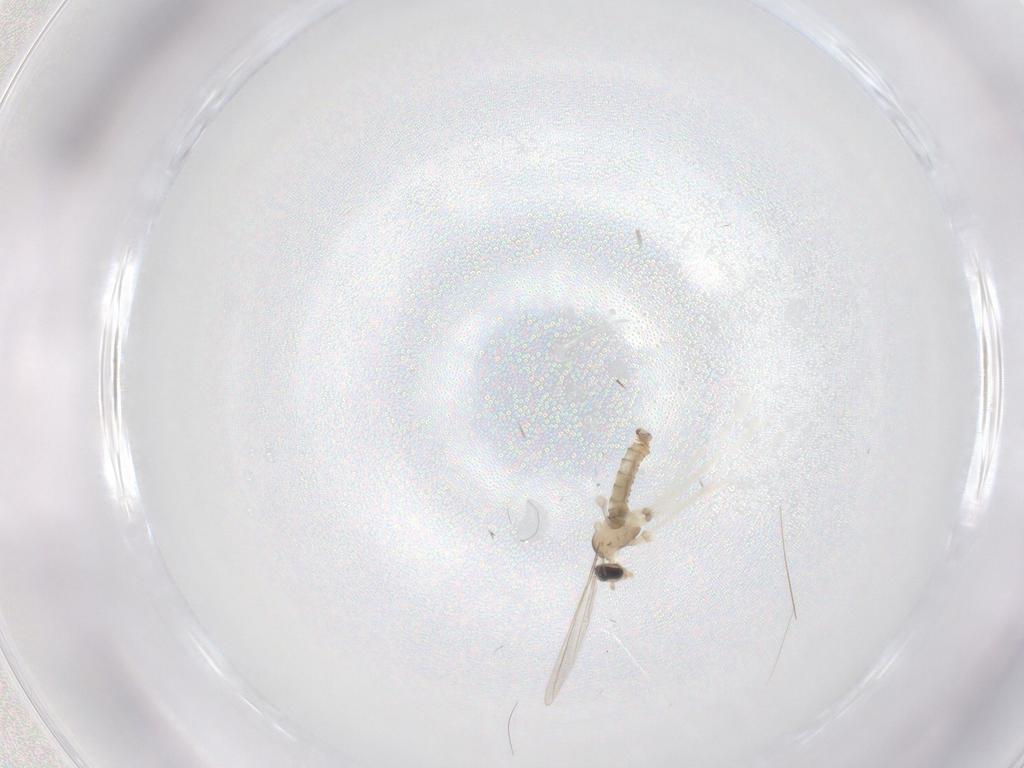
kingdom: Animalia
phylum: Arthropoda
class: Insecta
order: Diptera
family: Cecidomyiidae
